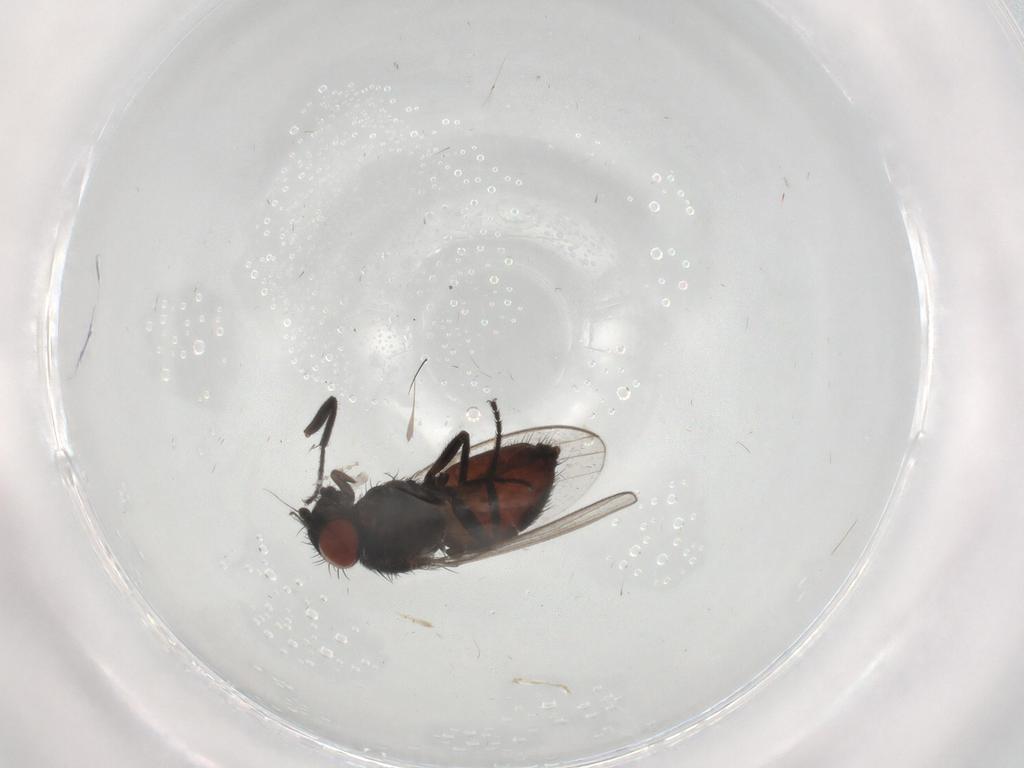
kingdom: Animalia
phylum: Arthropoda
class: Insecta
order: Diptera
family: Milichiidae
